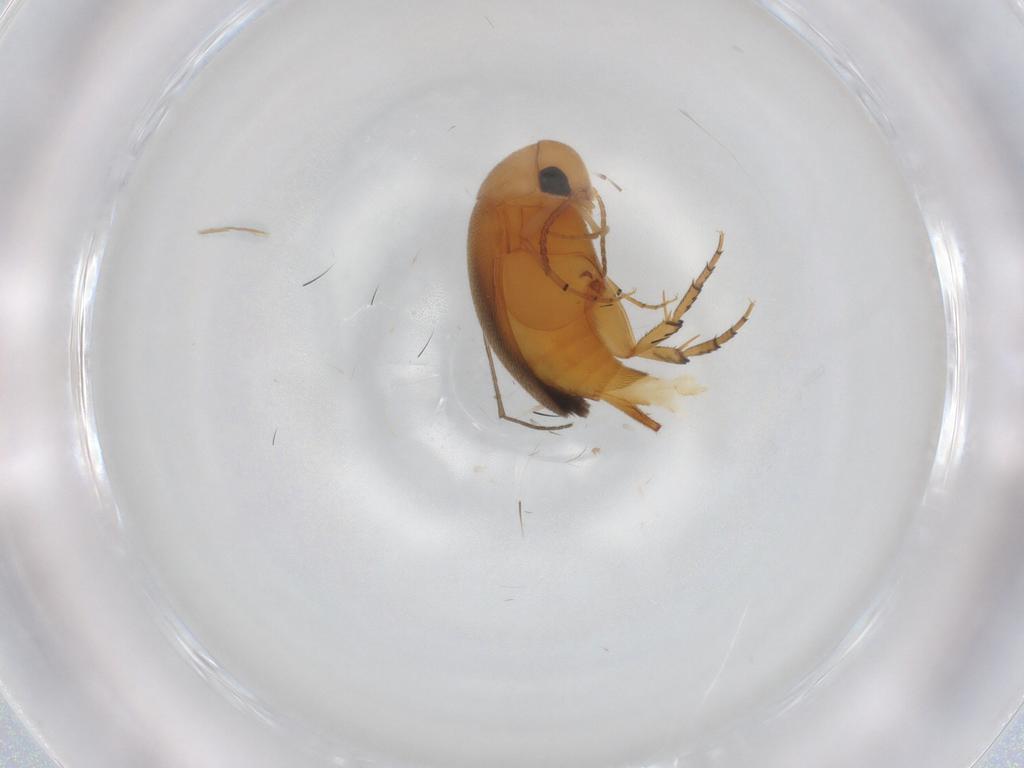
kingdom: Animalia
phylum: Arthropoda
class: Insecta
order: Coleoptera
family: Mordellidae
